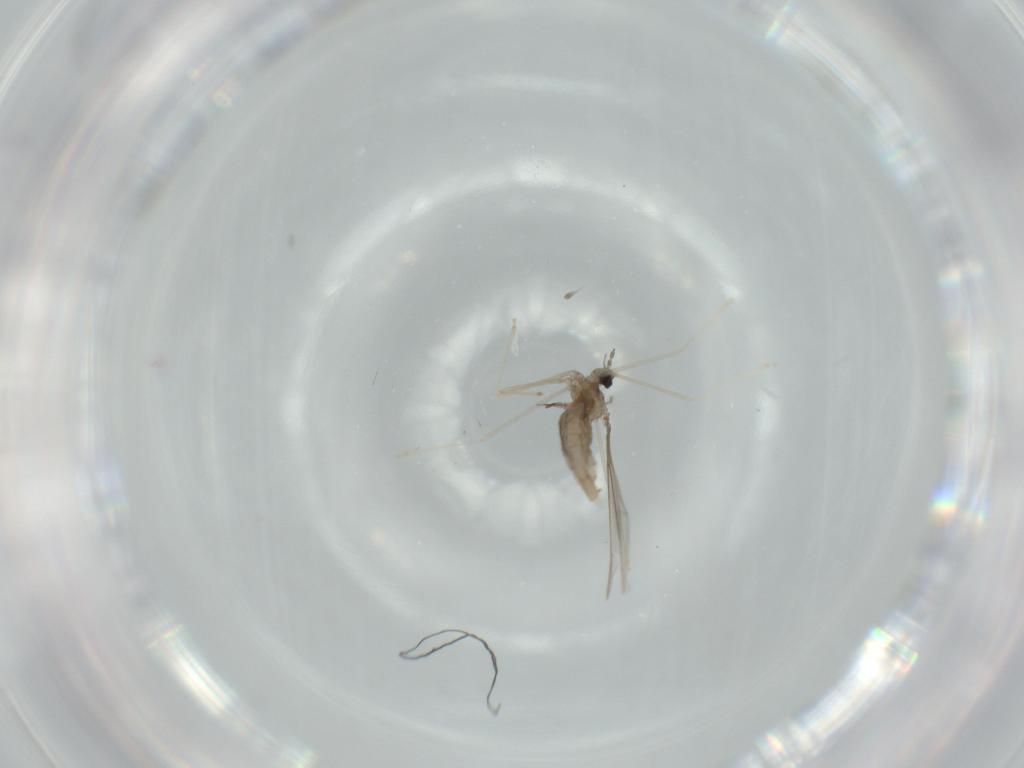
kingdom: Animalia
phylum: Arthropoda
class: Insecta
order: Diptera
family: Cecidomyiidae
